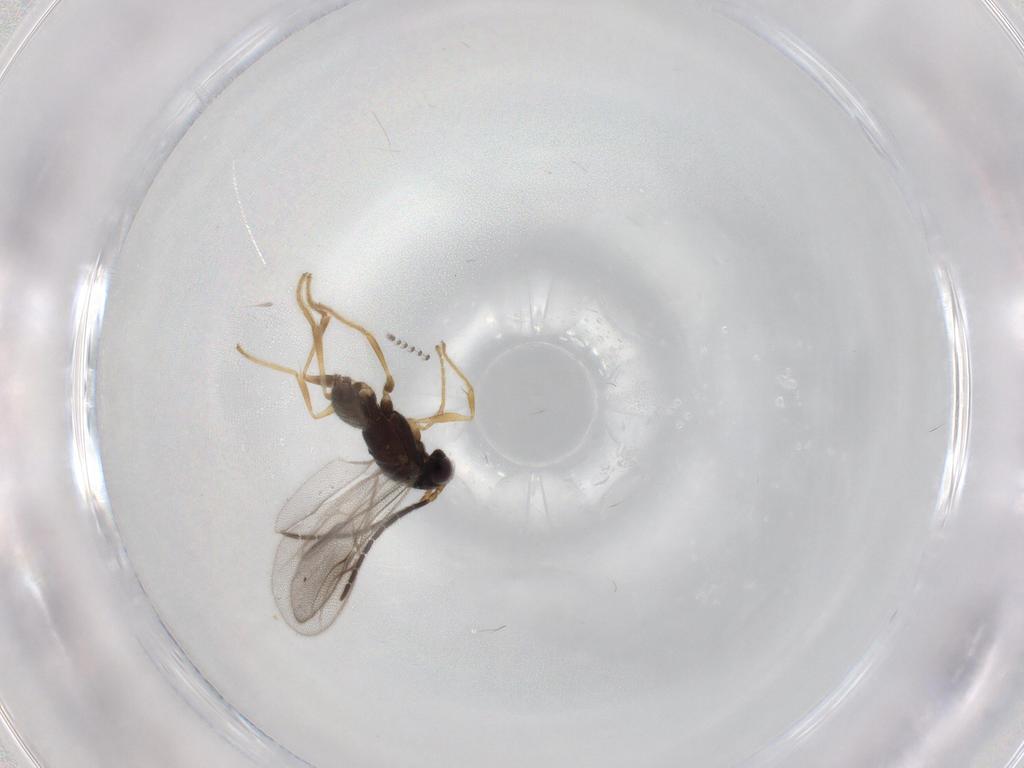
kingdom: Animalia
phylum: Arthropoda
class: Insecta
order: Hymenoptera
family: Dryinidae
